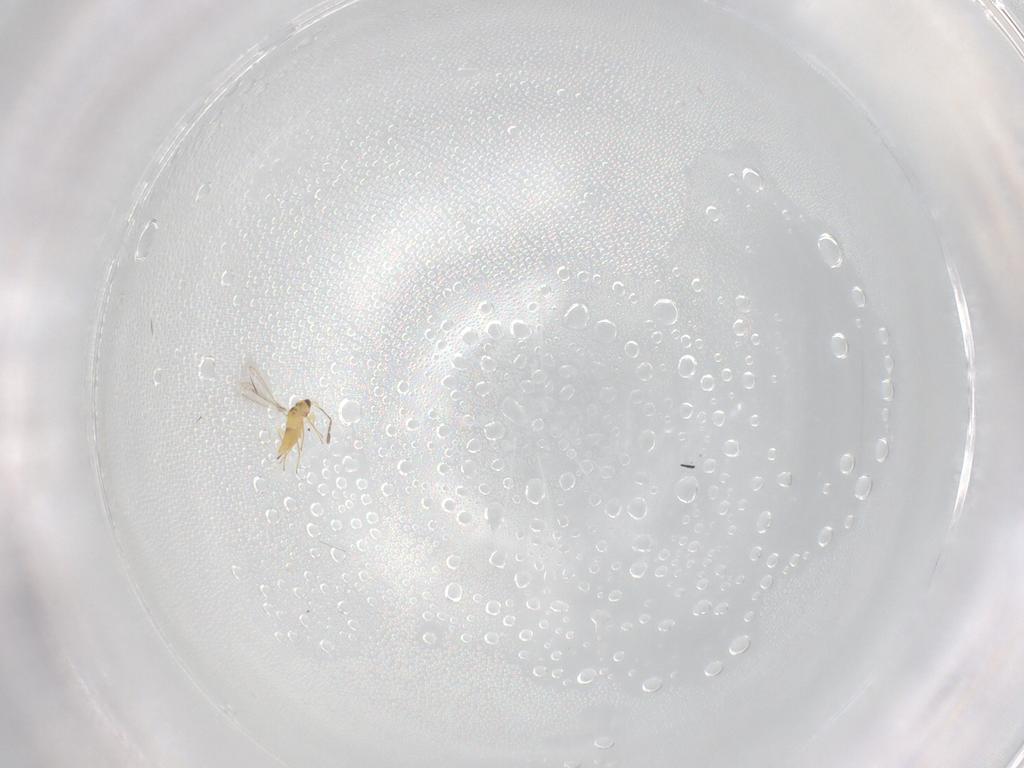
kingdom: Animalia
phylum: Arthropoda
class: Insecta
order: Hymenoptera
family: Mymaridae
